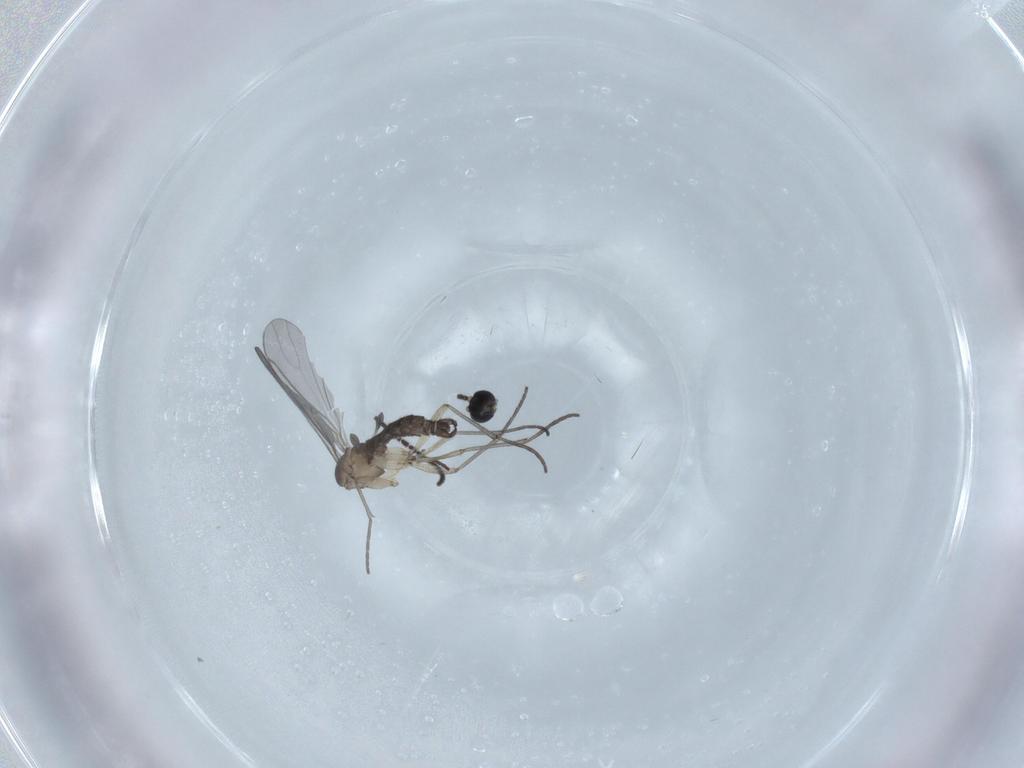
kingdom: Animalia
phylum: Arthropoda
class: Insecta
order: Diptera
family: Sciaridae
